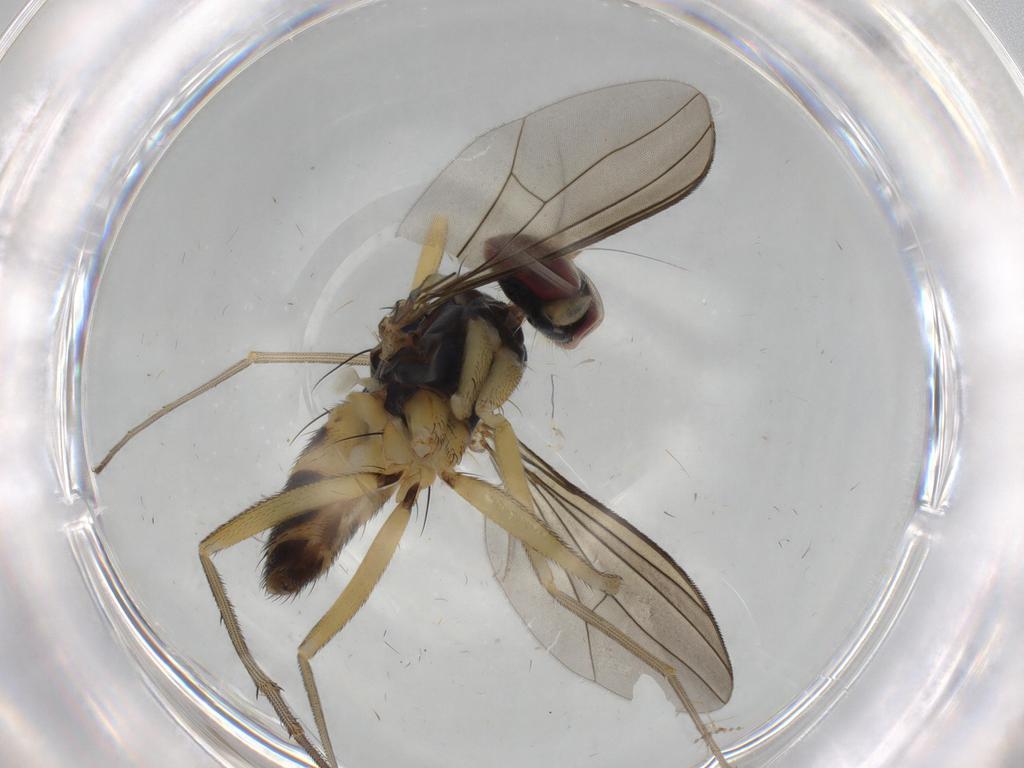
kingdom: Animalia
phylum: Arthropoda
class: Insecta
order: Diptera
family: Dolichopodidae
